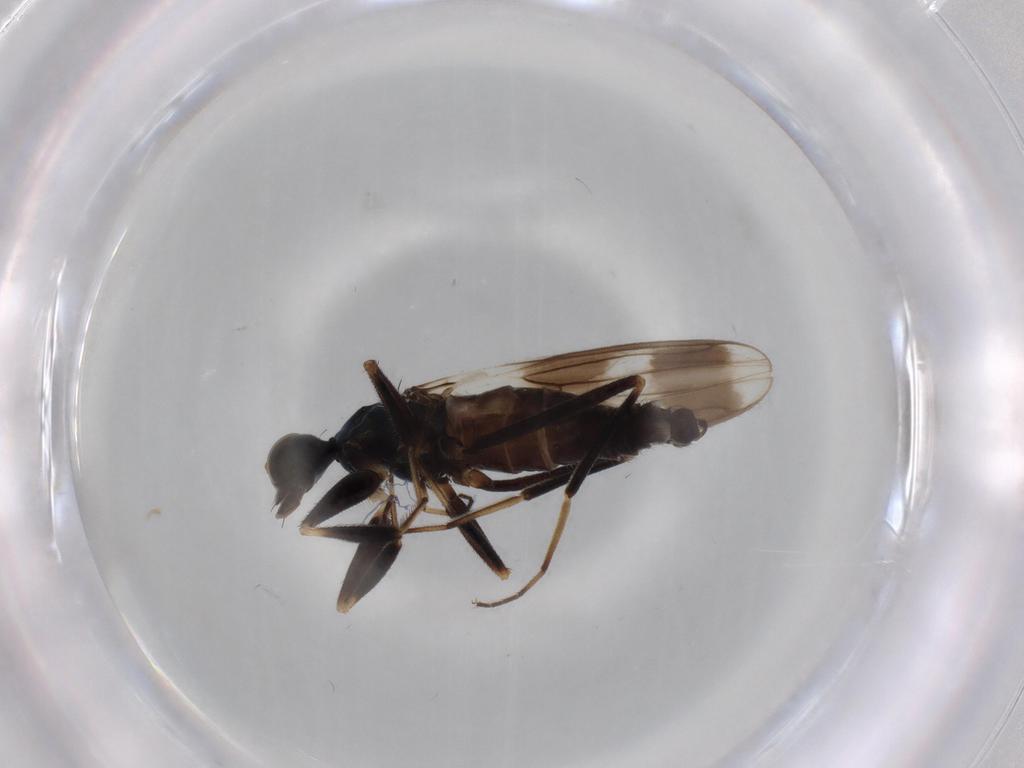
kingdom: Animalia
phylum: Arthropoda
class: Insecta
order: Diptera
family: Hybotidae
